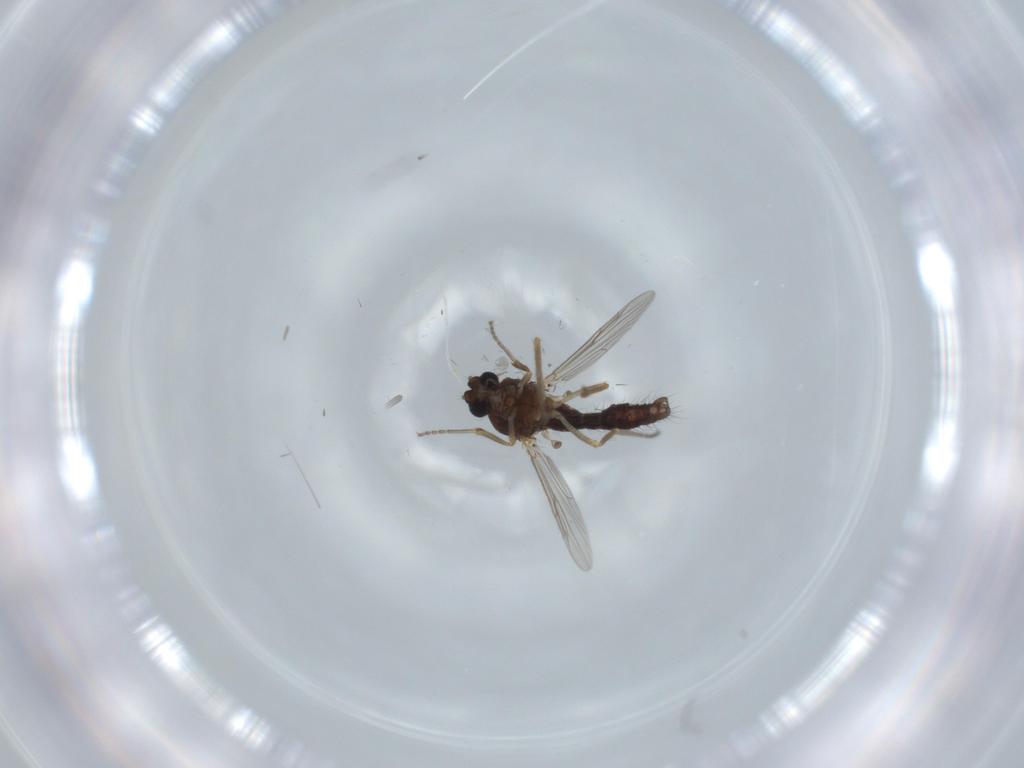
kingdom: Animalia
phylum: Arthropoda
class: Insecta
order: Diptera
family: Ceratopogonidae
